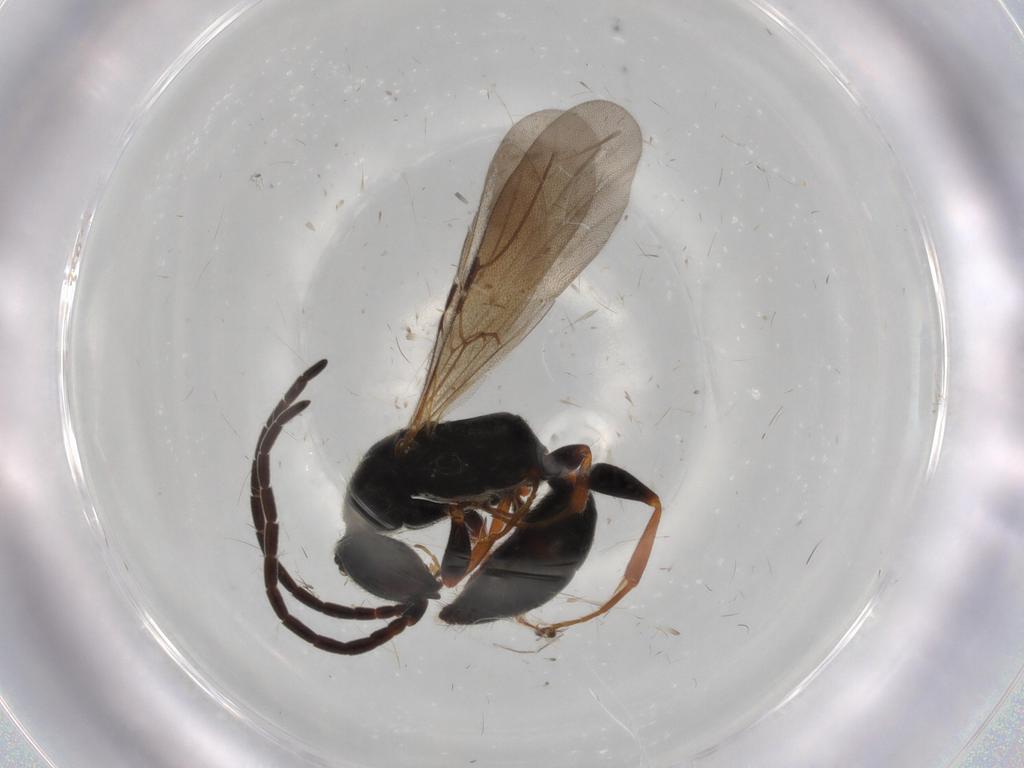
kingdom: Animalia
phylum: Arthropoda
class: Insecta
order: Hymenoptera
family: Bethylidae
